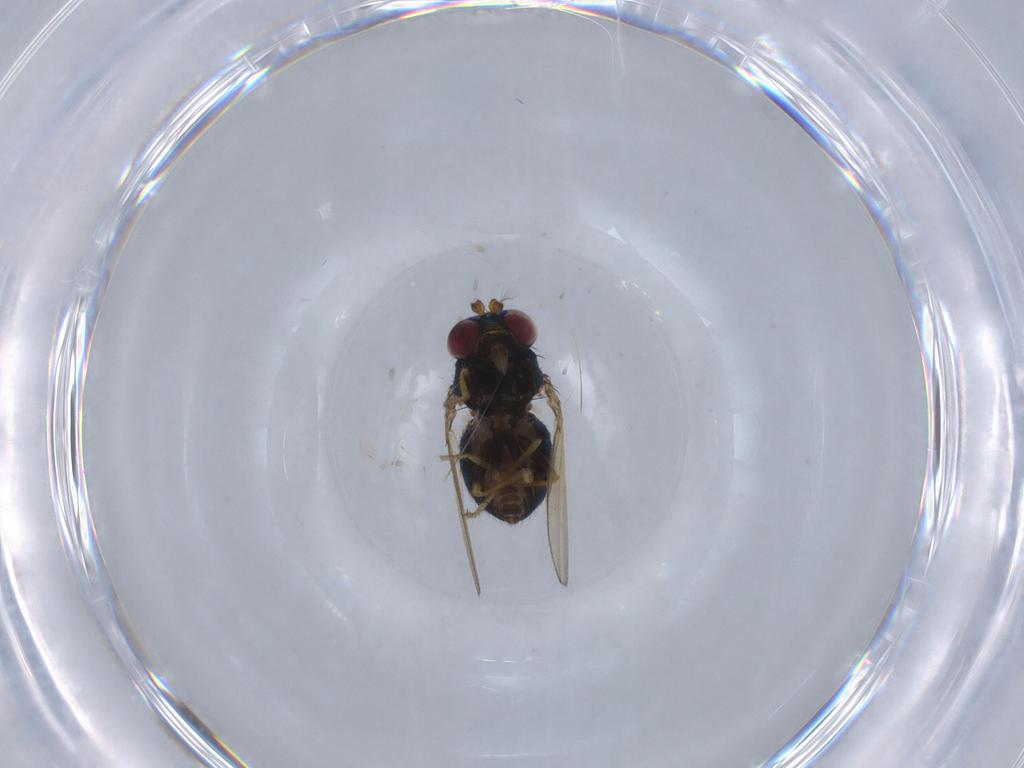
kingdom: Animalia
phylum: Arthropoda
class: Insecta
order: Diptera
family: Ephydridae
